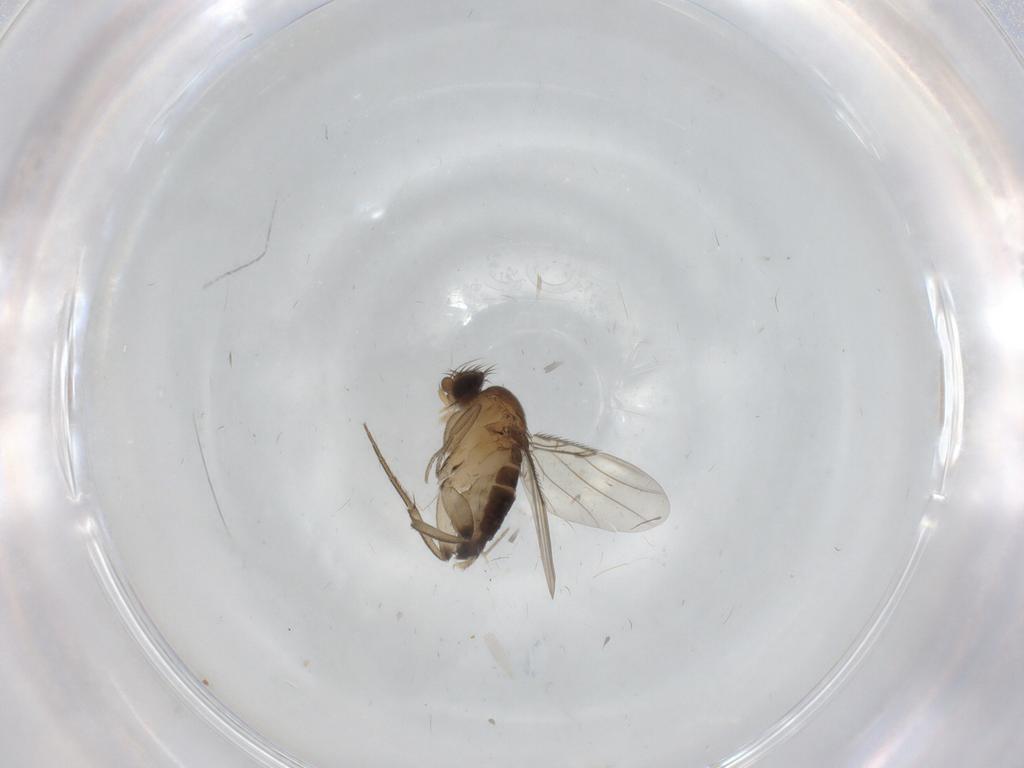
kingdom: Animalia
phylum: Arthropoda
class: Insecta
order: Diptera
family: Chironomidae
